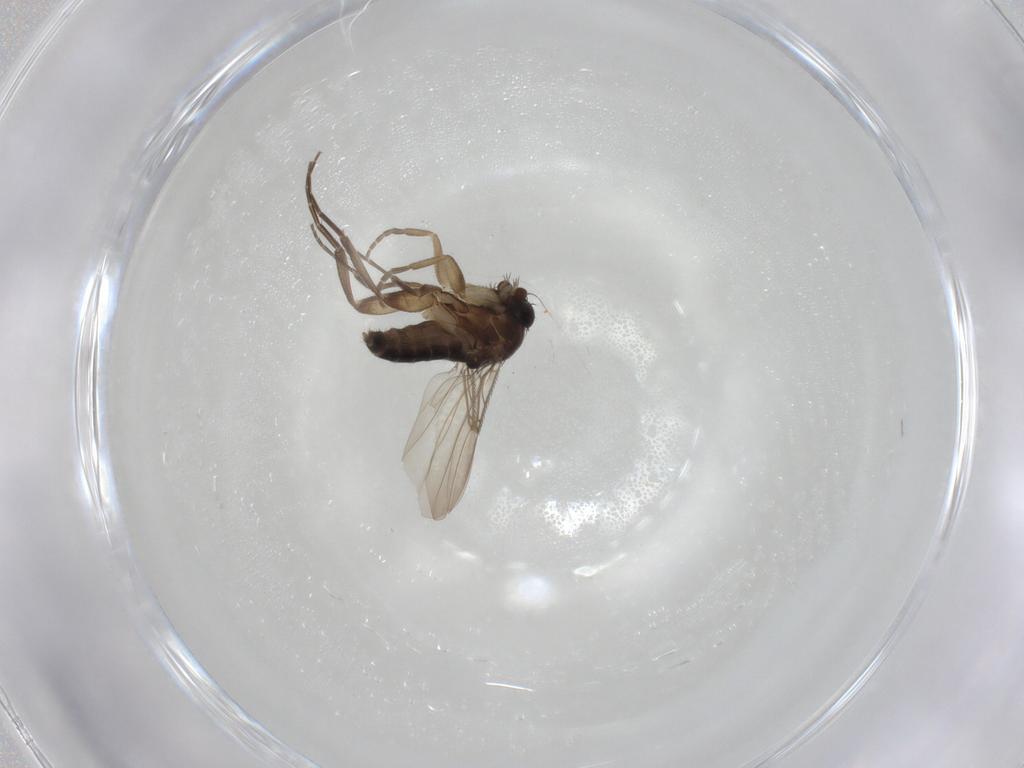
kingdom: Animalia
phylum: Arthropoda
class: Insecta
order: Diptera
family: Phoridae
